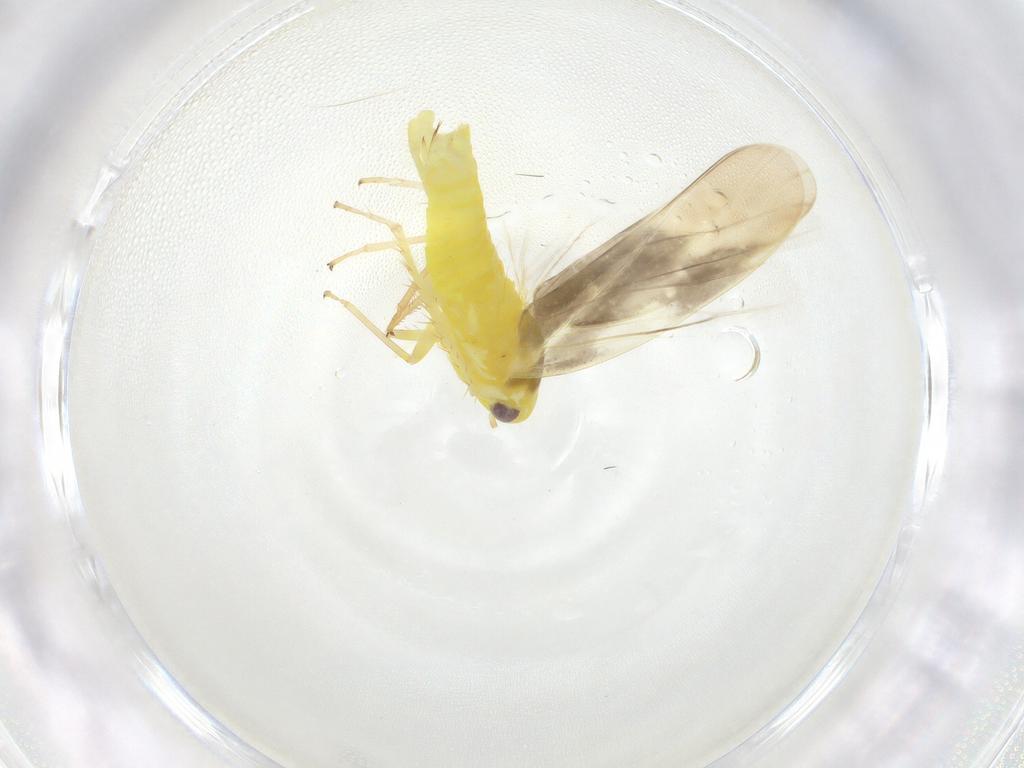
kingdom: Animalia
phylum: Arthropoda
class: Insecta
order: Hemiptera
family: Cicadellidae
